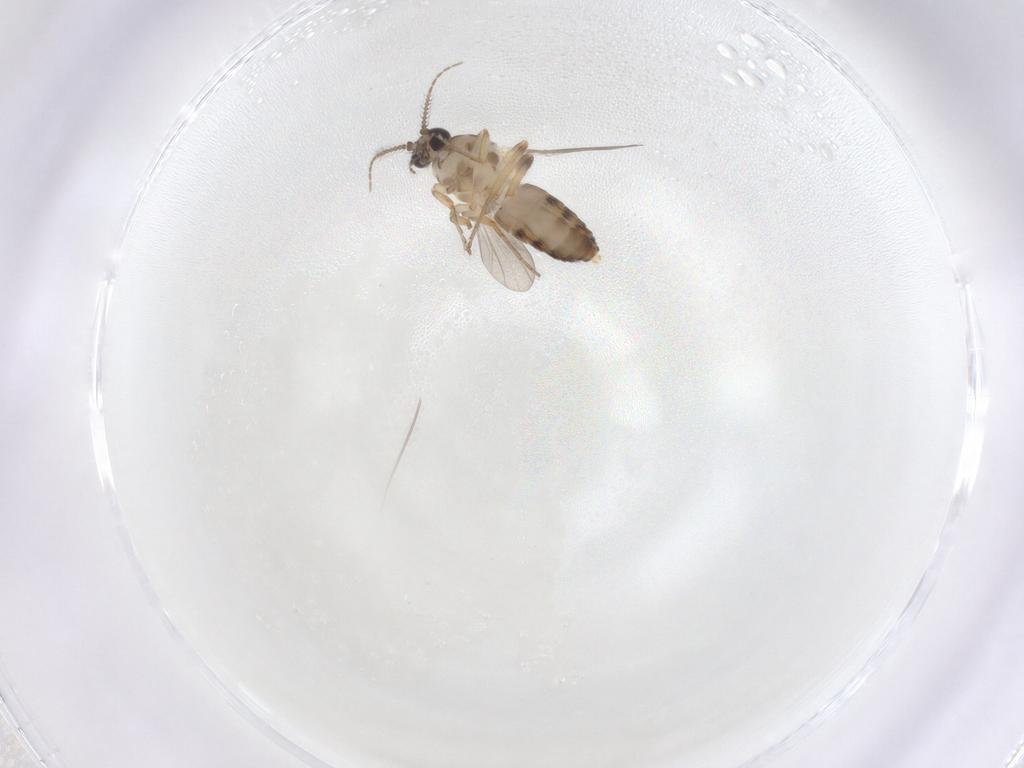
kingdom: Animalia
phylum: Arthropoda
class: Insecta
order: Diptera
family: Ceratopogonidae
